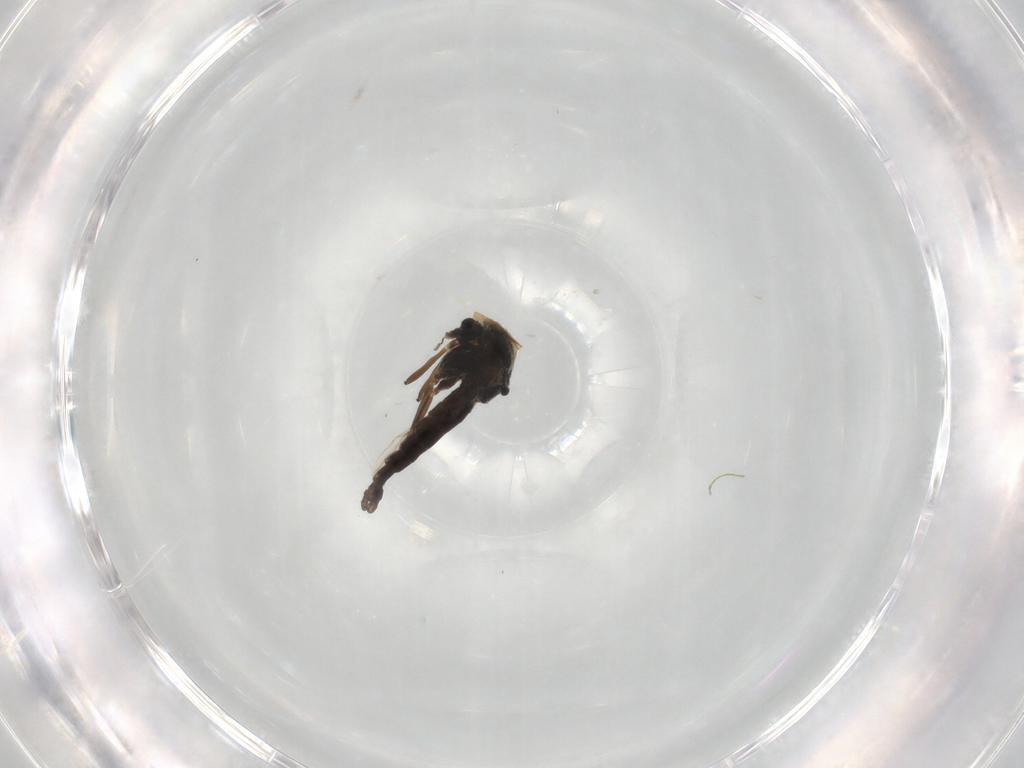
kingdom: Animalia
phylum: Arthropoda
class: Insecta
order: Diptera
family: Chironomidae
